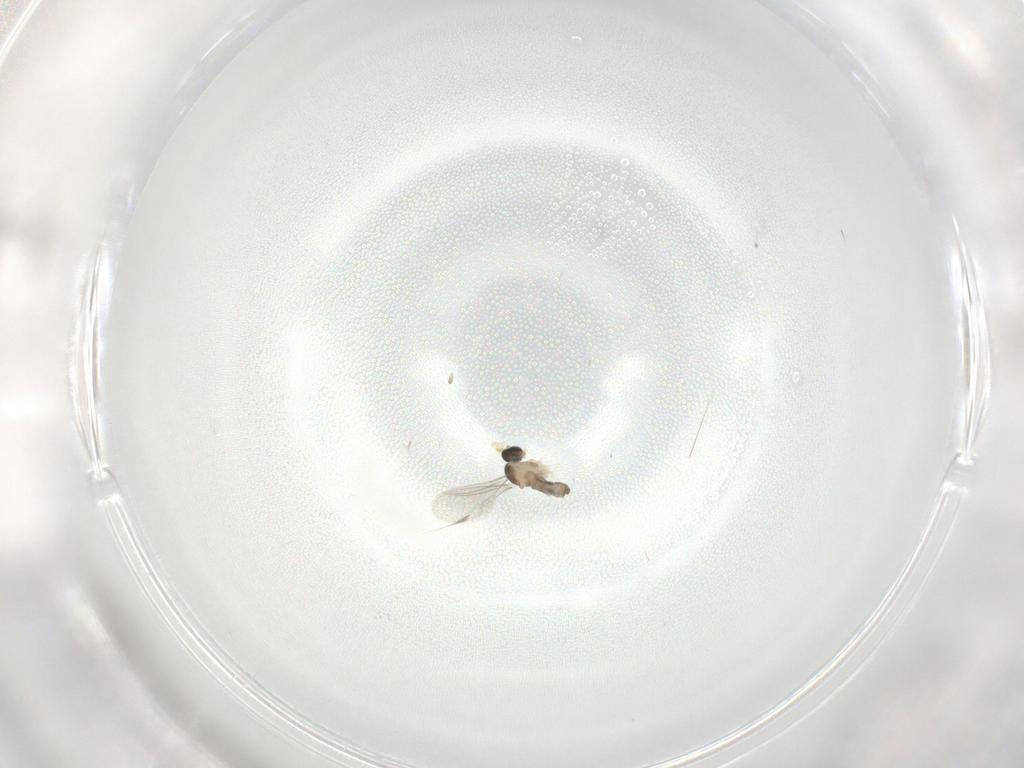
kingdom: Animalia
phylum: Arthropoda
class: Insecta
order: Diptera
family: Cecidomyiidae
